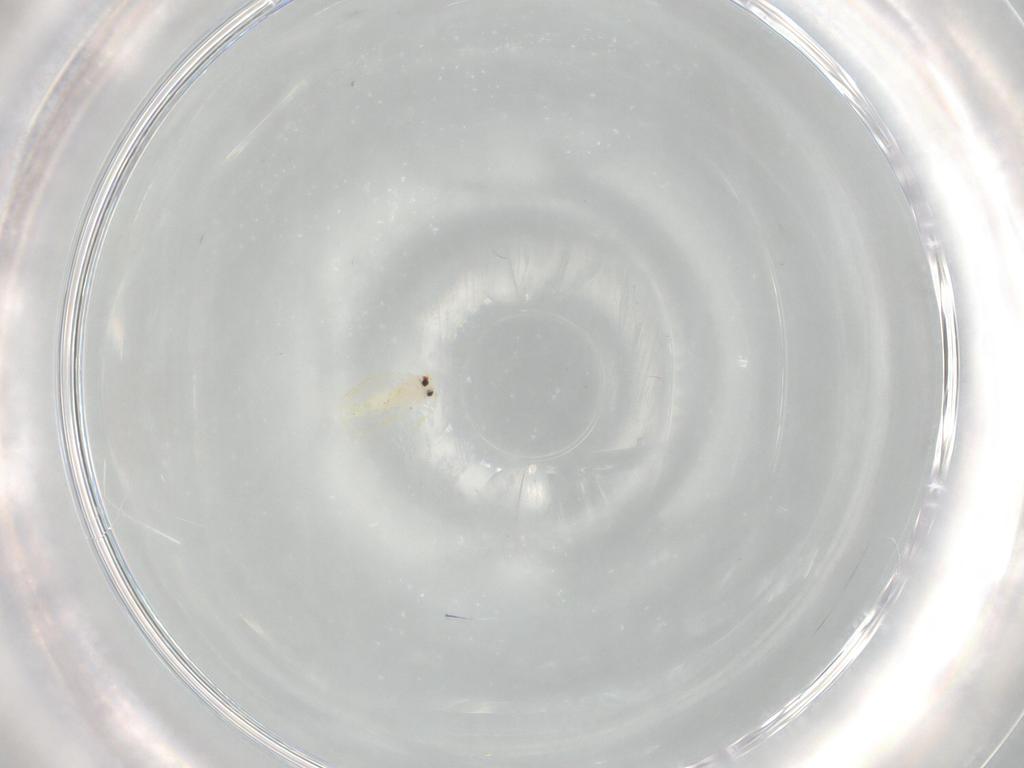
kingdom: Animalia
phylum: Arthropoda
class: Insecta
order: Hemiptera
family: Aleyrodidae
